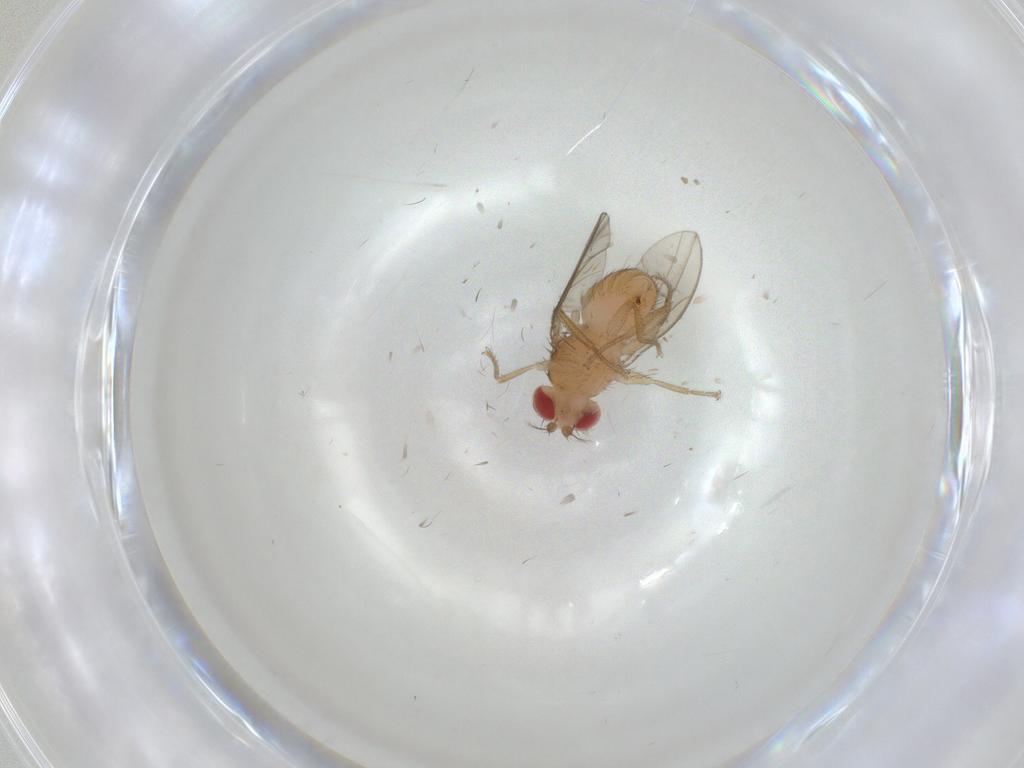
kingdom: Animalia
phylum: Arthropoda
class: Insecta
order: Diptera
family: Drosophilidae
